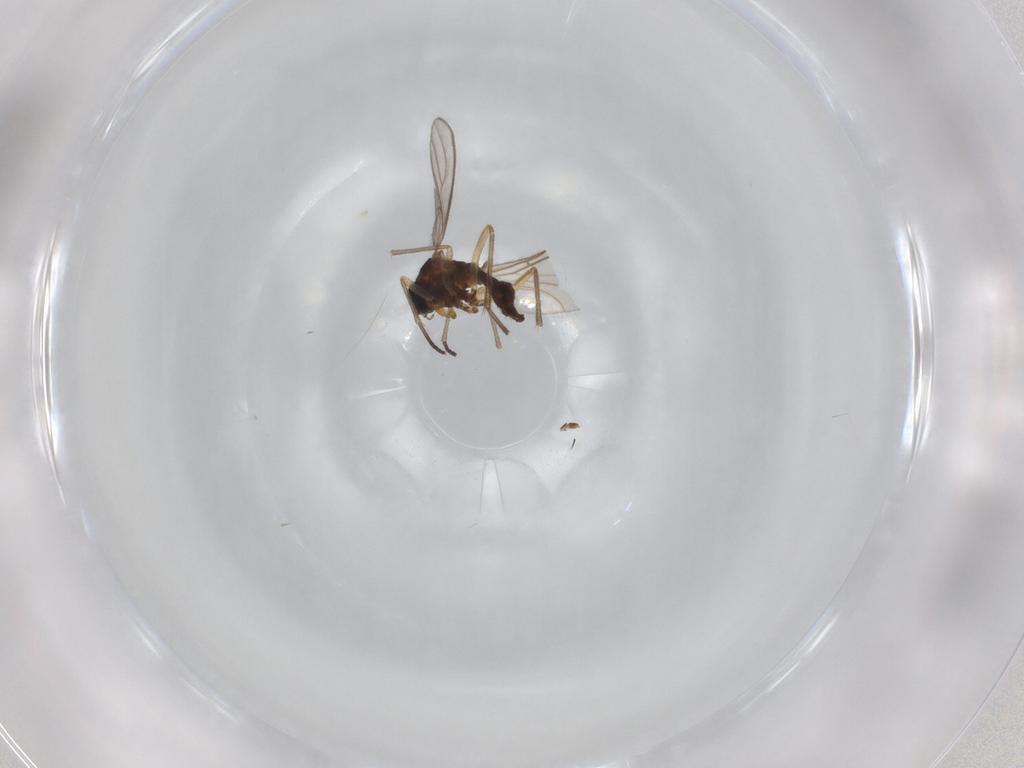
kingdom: Animalia
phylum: Arthropoda
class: Insecta
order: Diptera
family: Sciaridae
